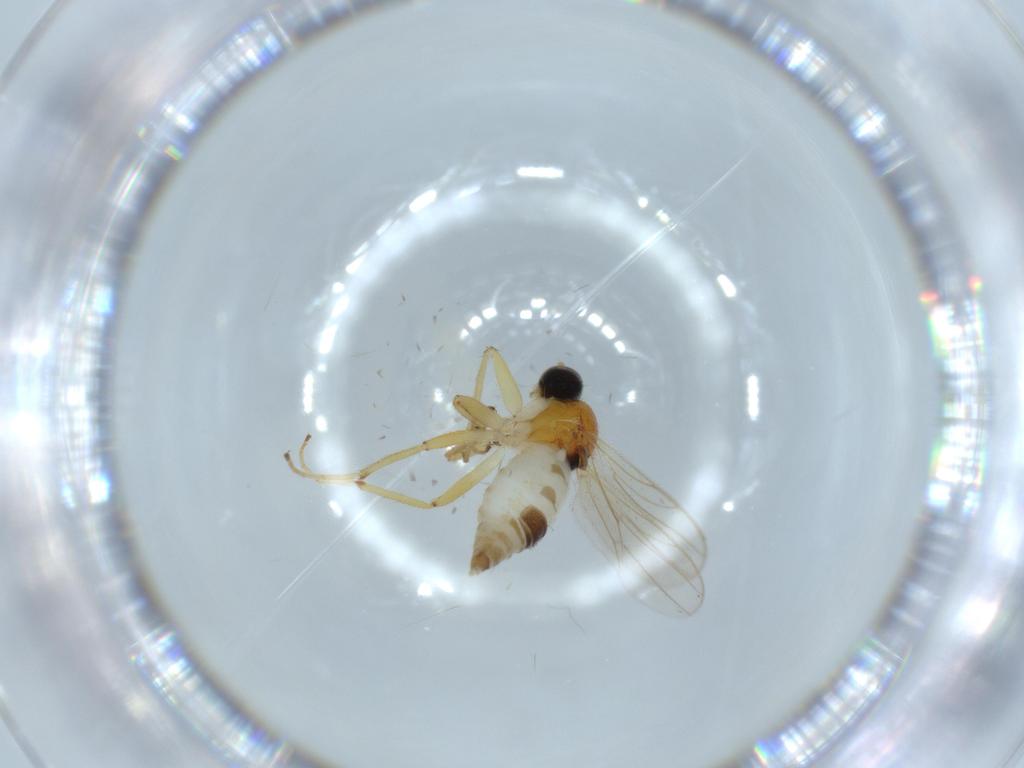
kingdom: Animalia
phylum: Arthropoda
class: Insecta
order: Diptera
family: Hybotidae
